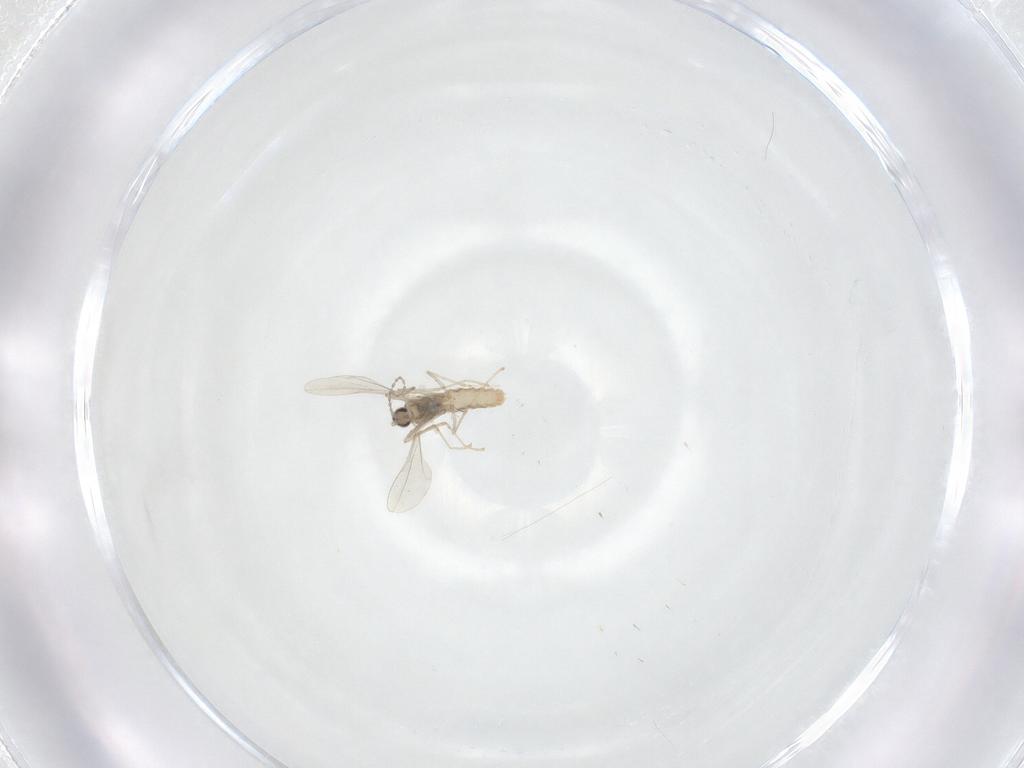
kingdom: Animalia
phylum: Arthropoda
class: Insecta
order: Diptera
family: Cecidomyiidae
